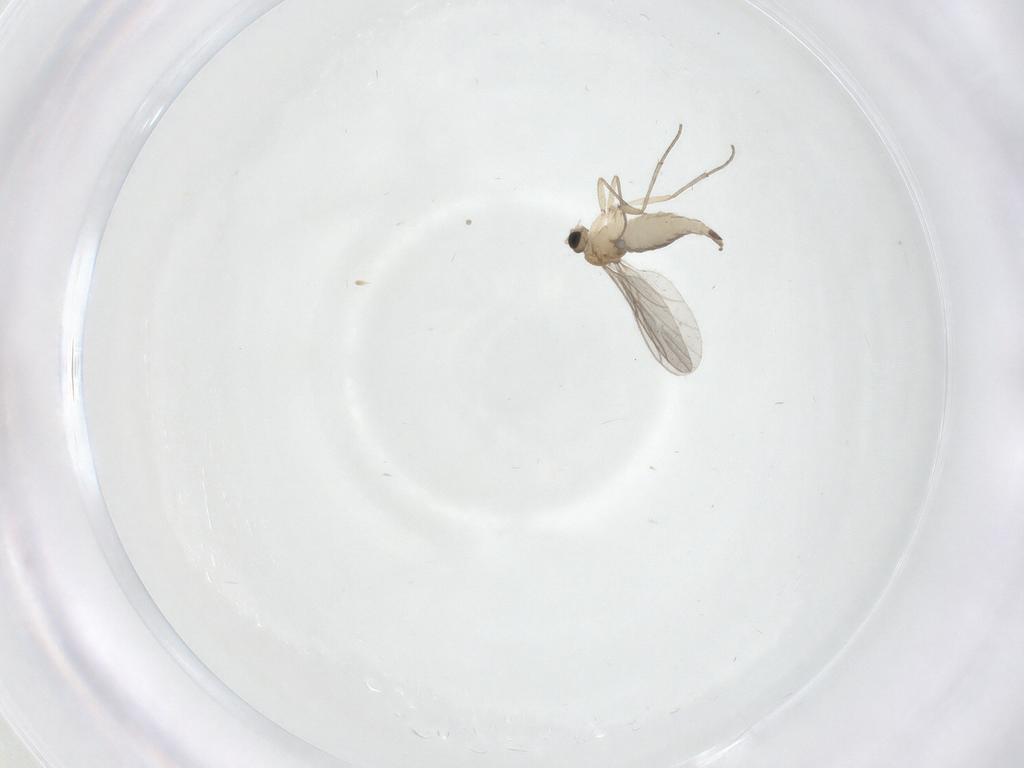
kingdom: Animalia
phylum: Arthropoda
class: Insecta
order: Diptera
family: Sciaridae
